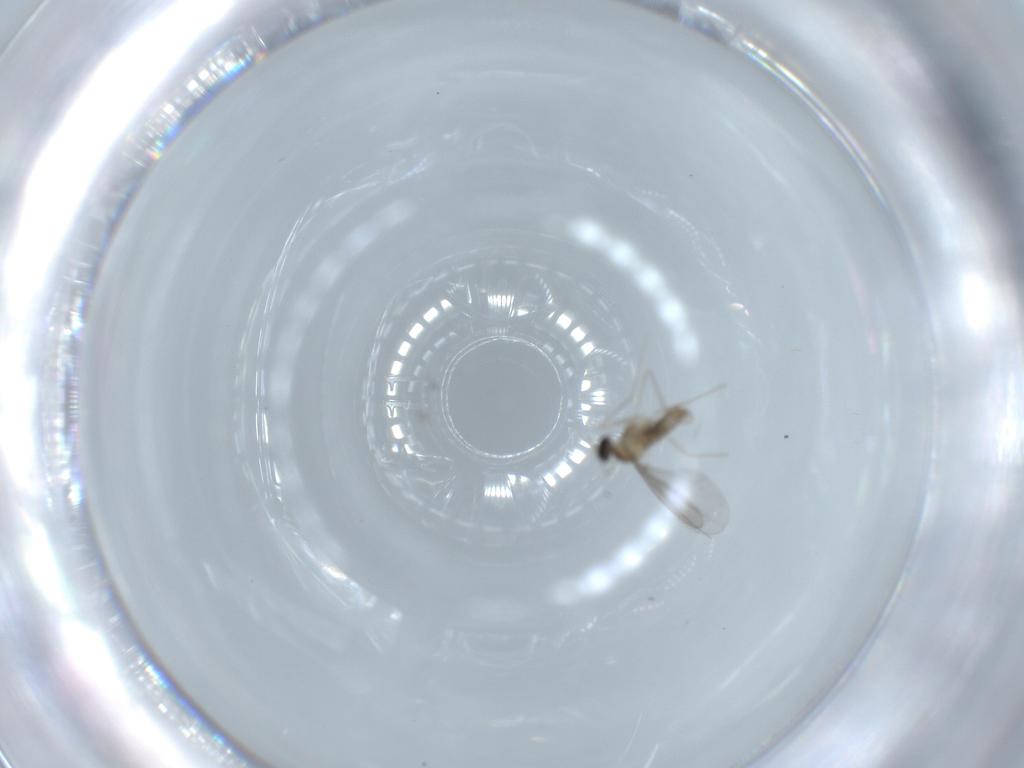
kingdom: Animalia
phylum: Arthropoda
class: Insecta
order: Diptera
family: Cecidomyiidae
